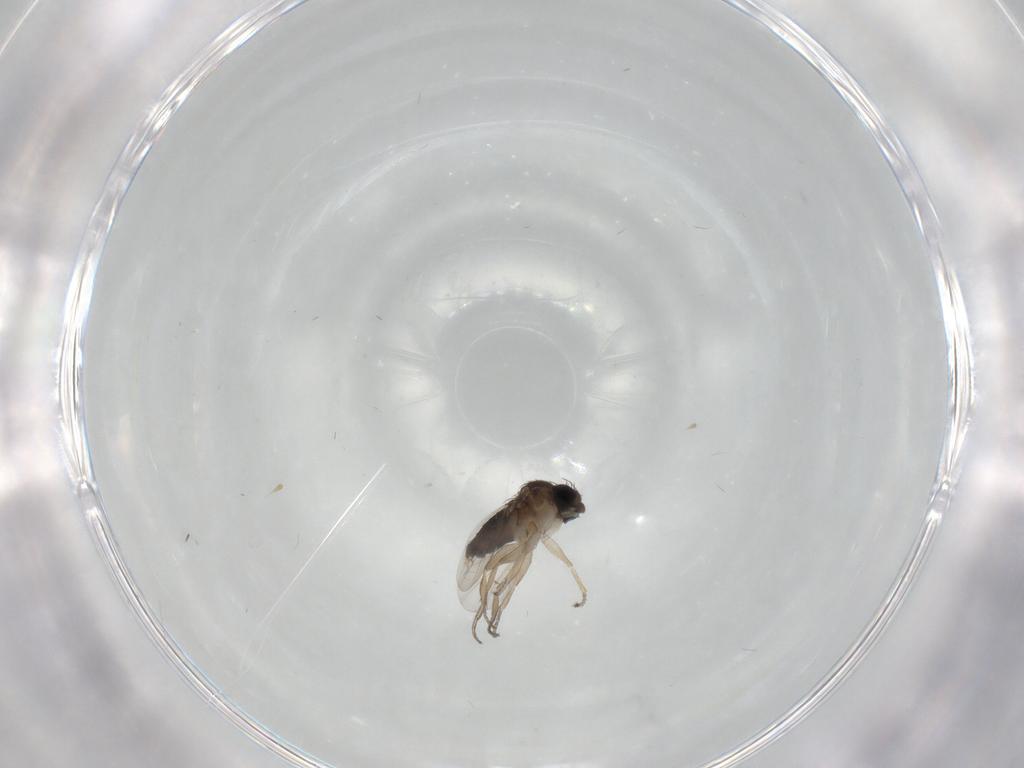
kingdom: Animalia
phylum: Arthropoda
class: Insecta
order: Diptera
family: Phoridae
